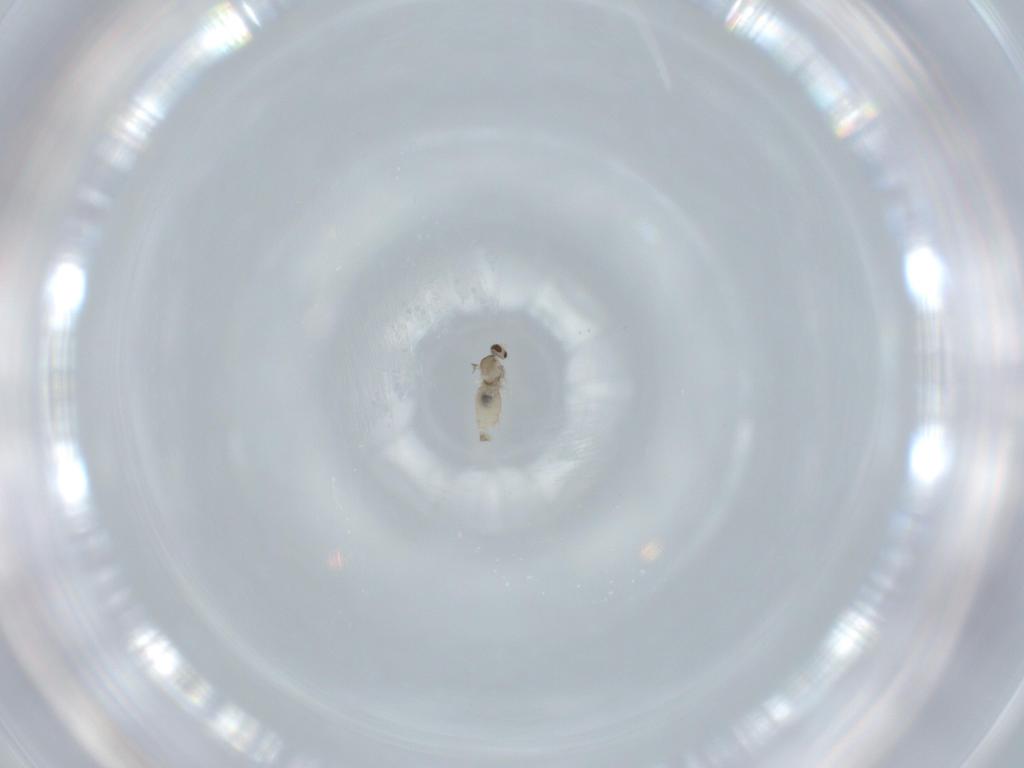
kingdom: Animalia
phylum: Arthropoda
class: Insecta
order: Diptera
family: Cecidomyiidae
